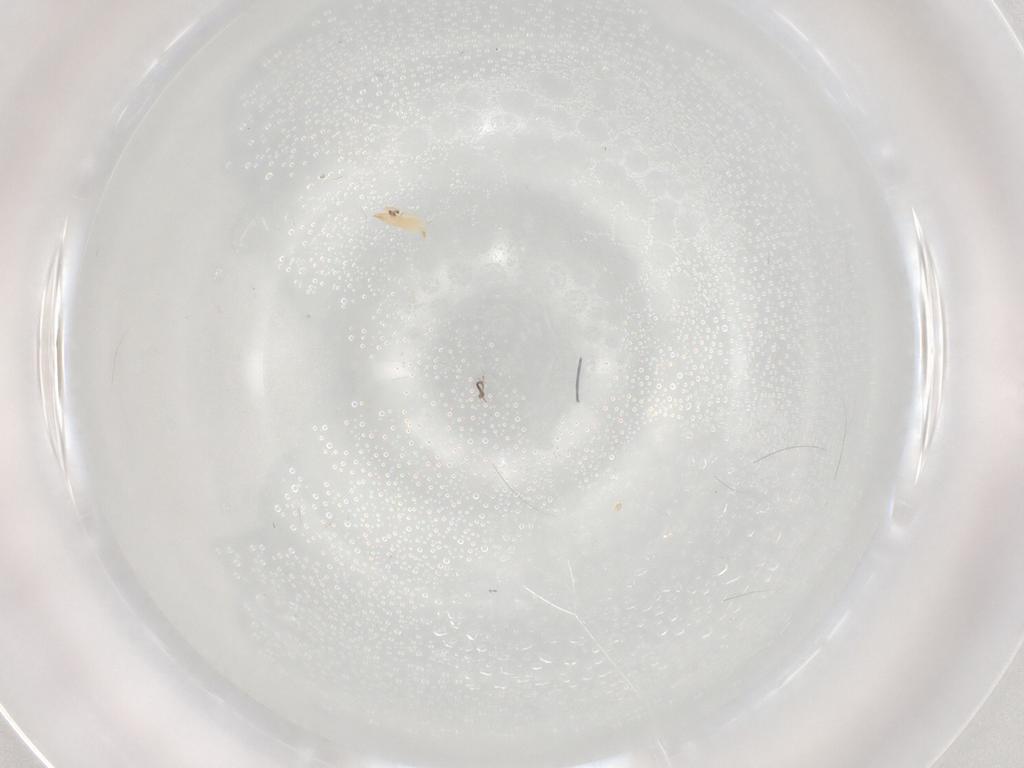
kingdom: Animalia
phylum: Arthropoda
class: Arachnida
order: Trombidiformes
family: Cunaxidae
